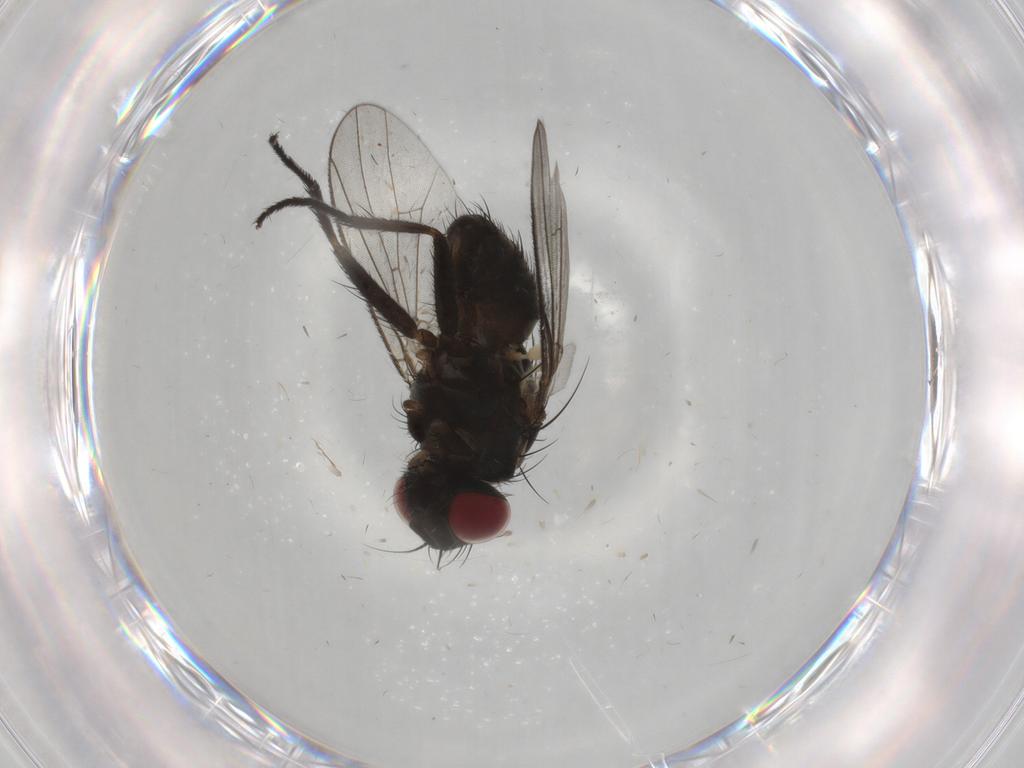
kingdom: Animalia
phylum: Arthropoda
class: Insecta
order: Diptera
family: Muscidae
